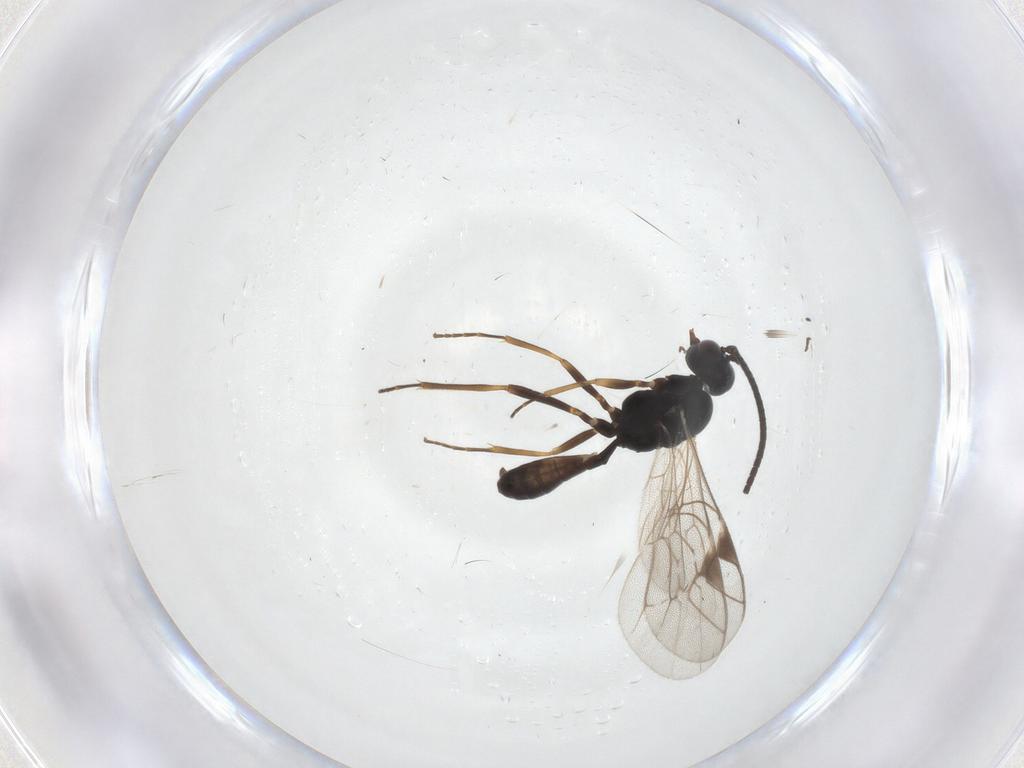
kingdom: Animalia
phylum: Arthropoda
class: Insecta
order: Hymenoptera
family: Ichneumonidae
